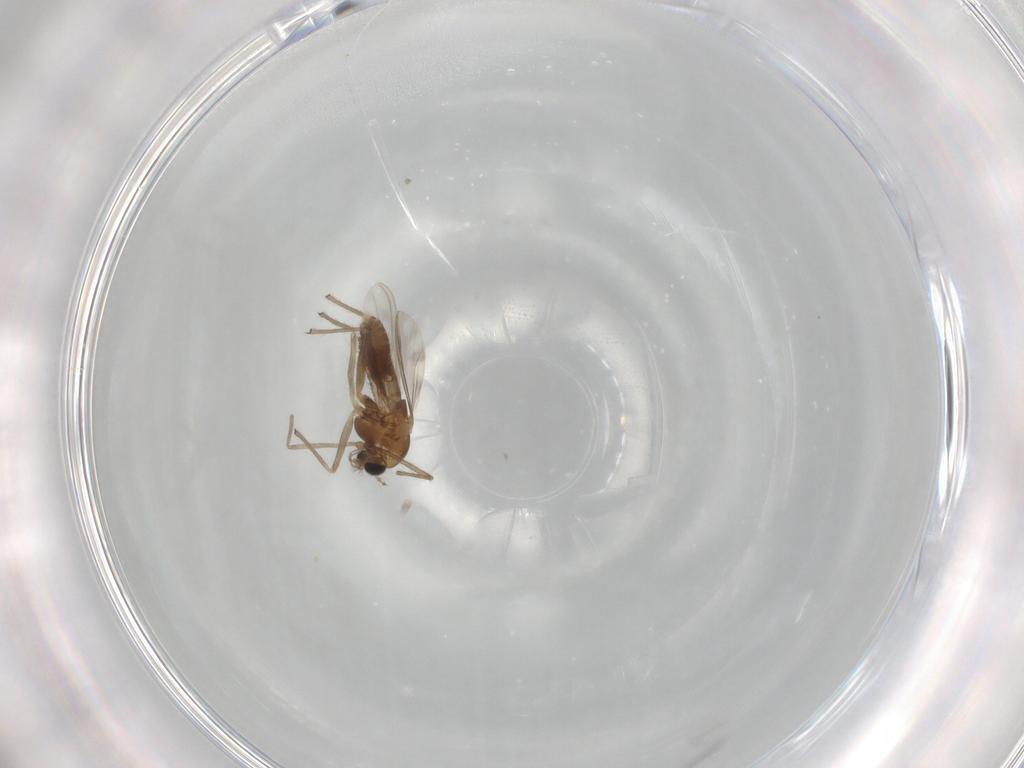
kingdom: Animalia
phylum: Arthropoda
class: Insecta
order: Diptera
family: Chironomidae
